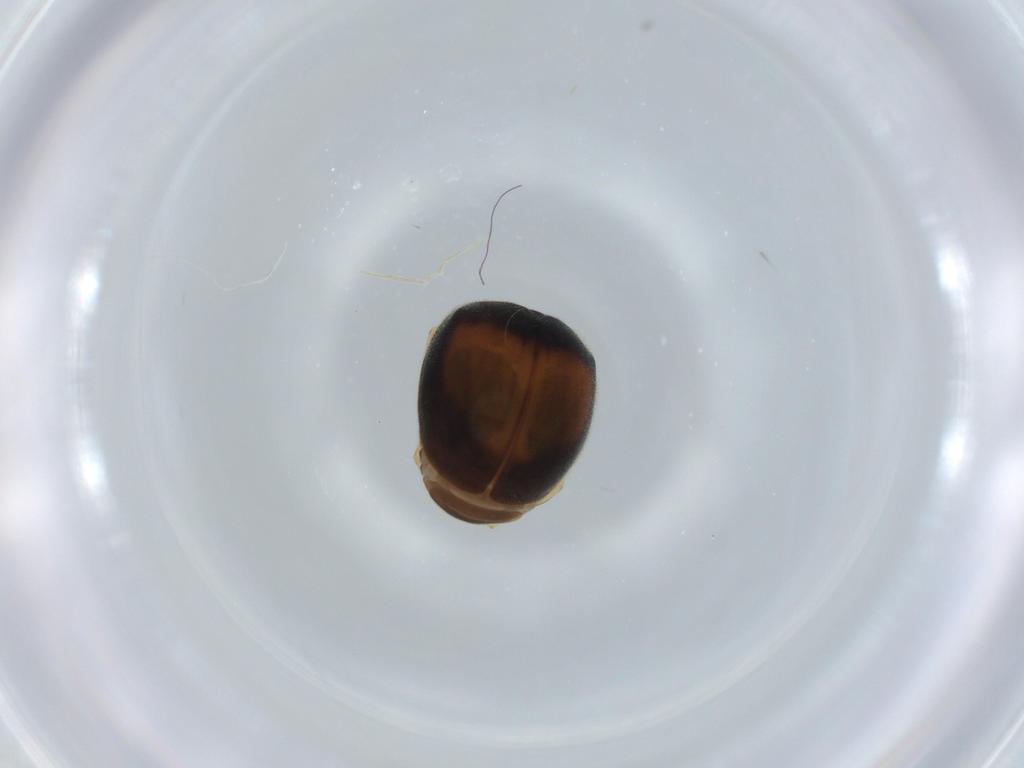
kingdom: Animalia
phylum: Arthropoda
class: Insecta
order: Coleoptera
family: Coccinellidae
